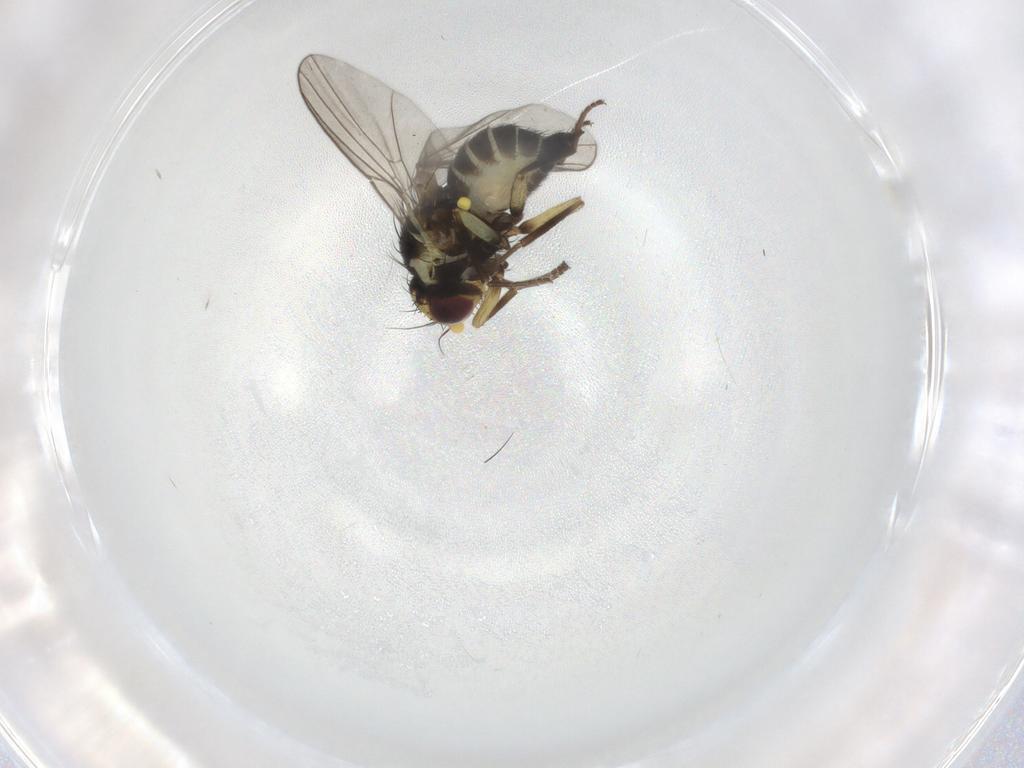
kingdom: Animalia
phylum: Arthropoda
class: Insecta
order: Diptera
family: Agromyzidae
